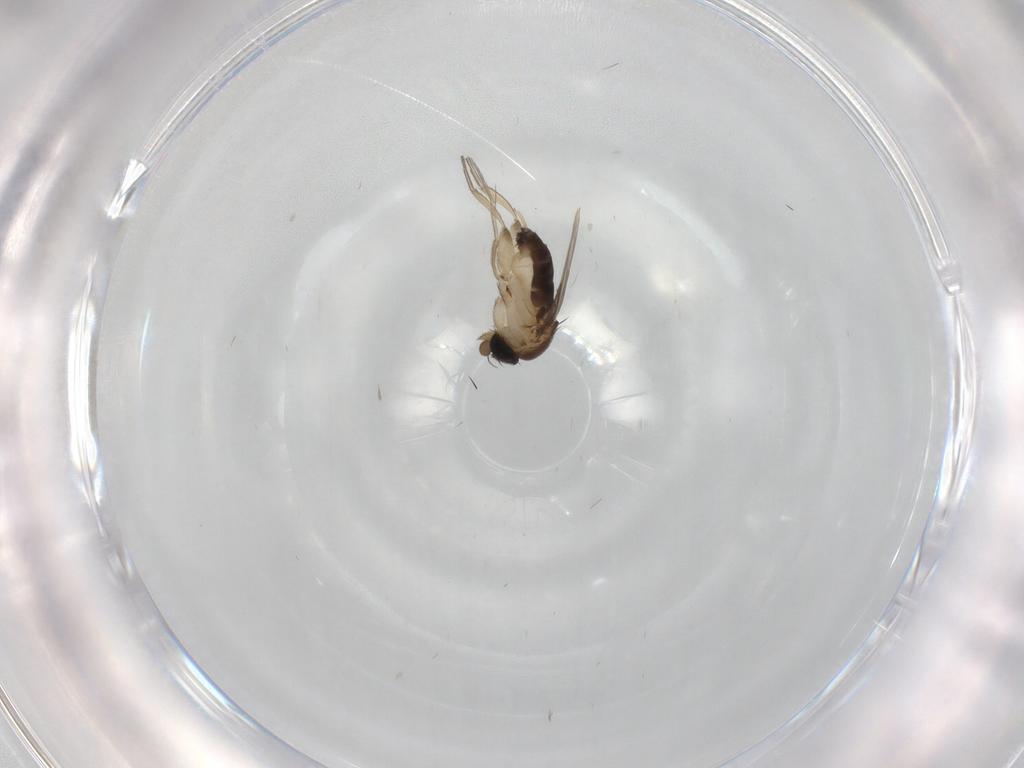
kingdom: Animalia
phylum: Arthropoda
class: Insecta
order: Diptera
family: Phoridae
